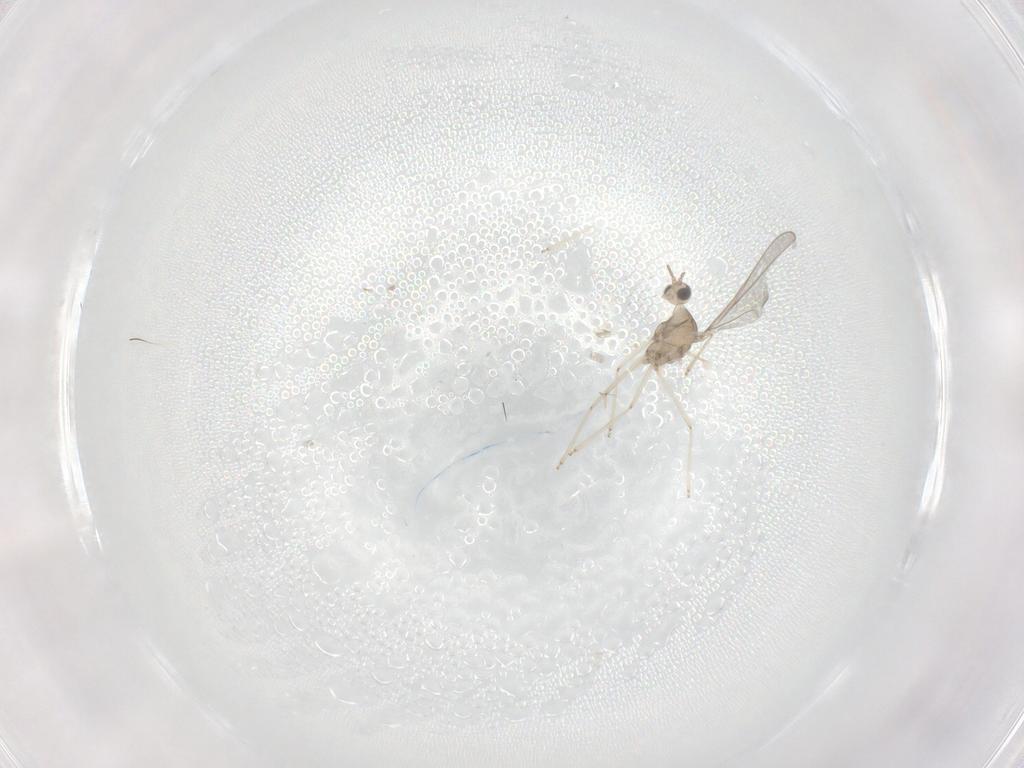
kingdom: Animalia
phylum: Arthropoda
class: Insecta
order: Diptera
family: Cecidomyiidae
